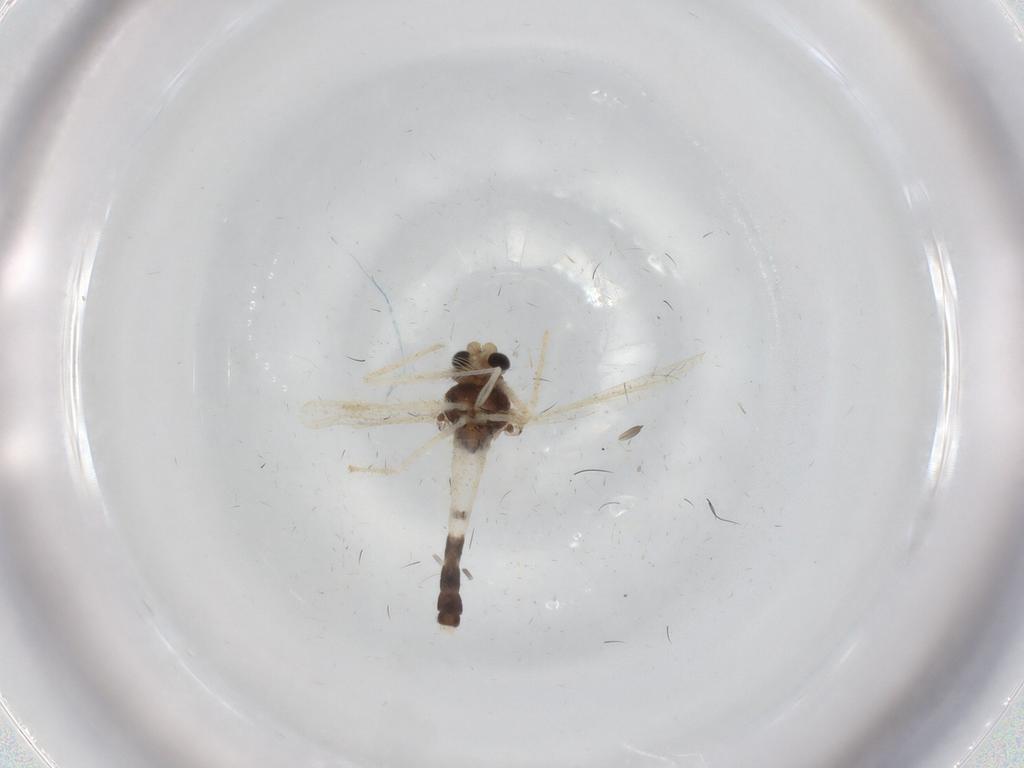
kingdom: Animalia
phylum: Arthropoda
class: Insecta
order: Diptera
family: Chironomidae
